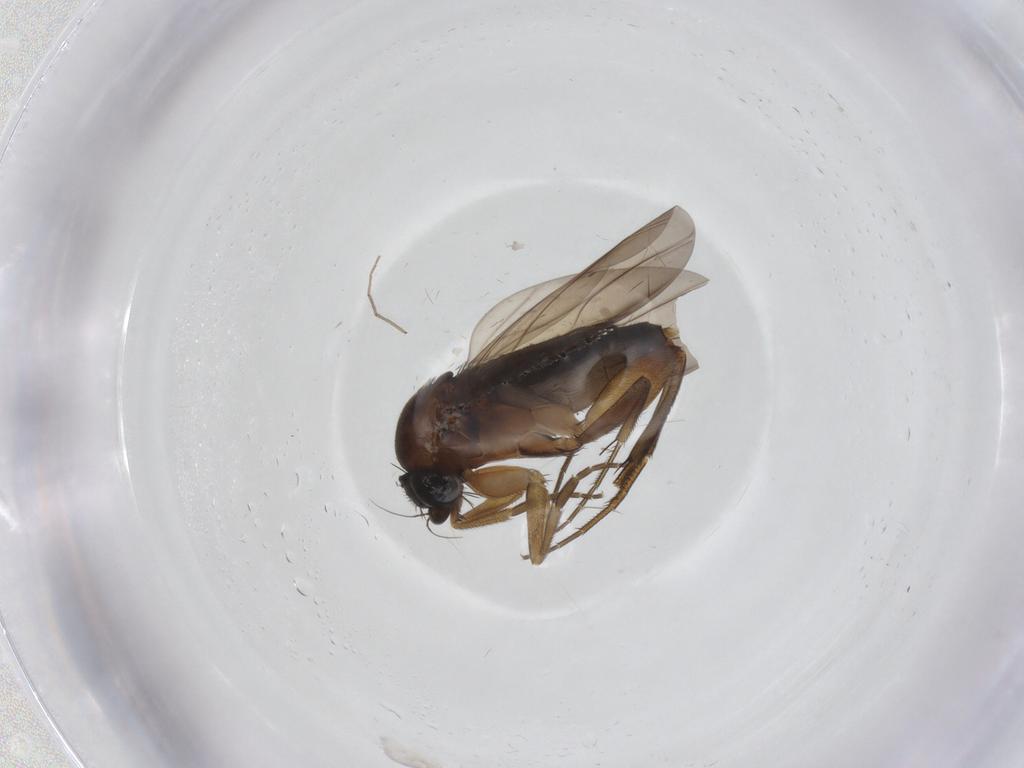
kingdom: Animalia
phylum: Arthropoda
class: Insecta
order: Diptera
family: Phoridae
